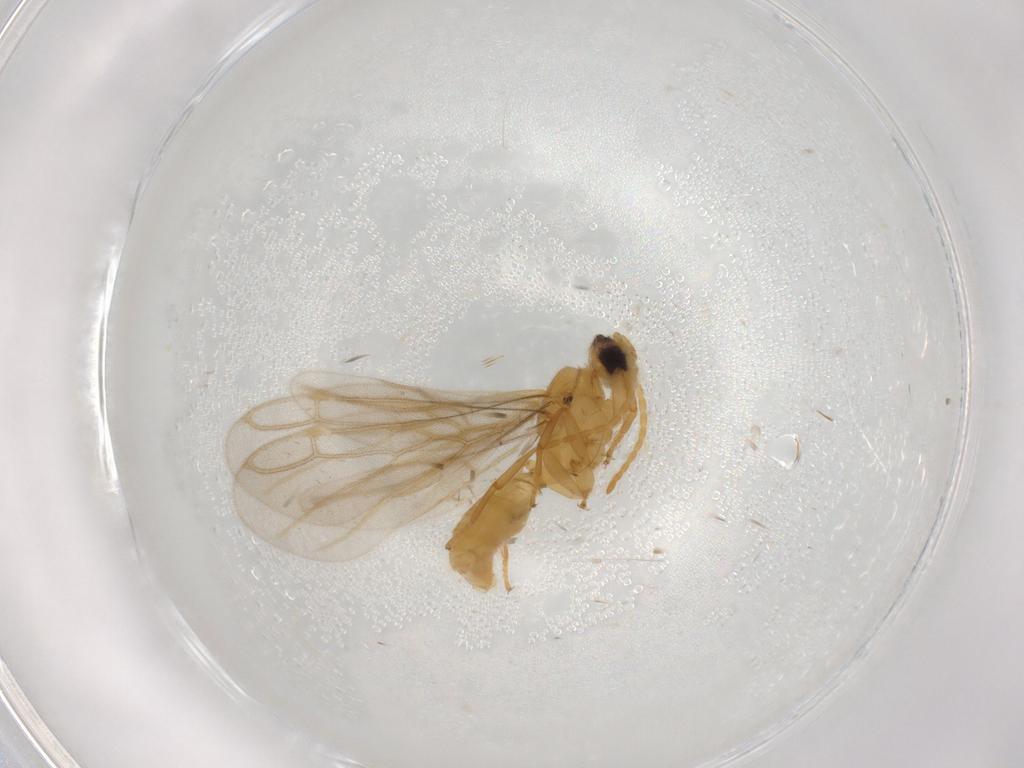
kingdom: Animalia
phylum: Arthropoda
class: Insecta
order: Hymenoptera
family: Formicidae
